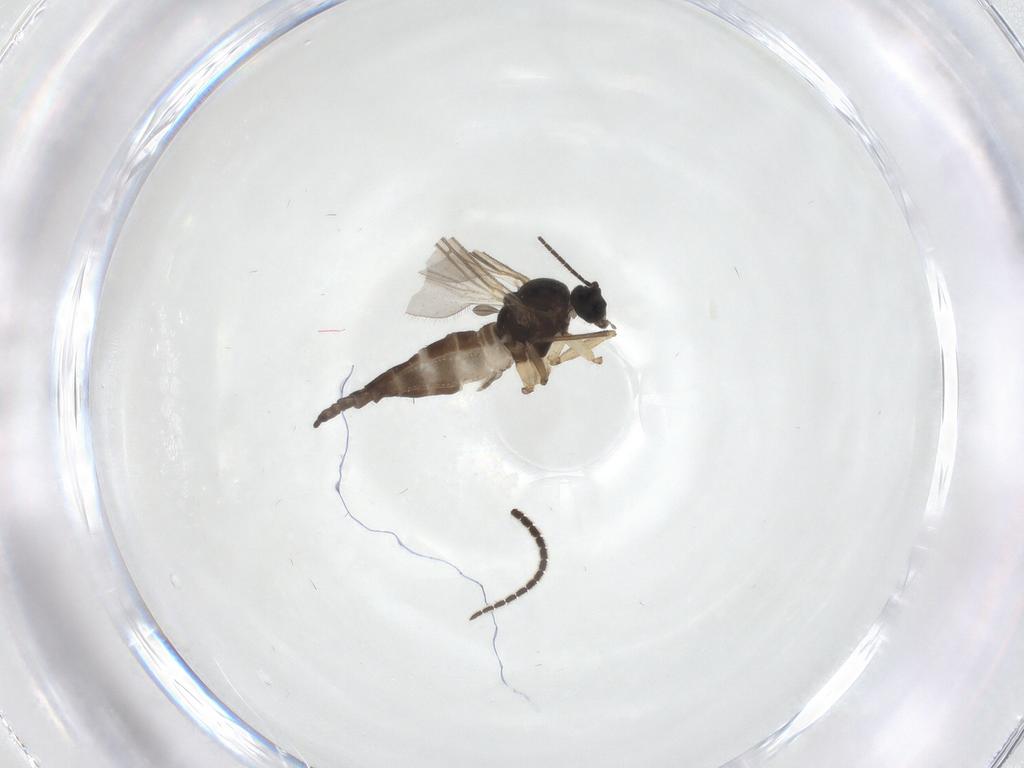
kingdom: Animalia
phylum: Arthropoda
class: Insecta
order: Diptera
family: Sciaridae
